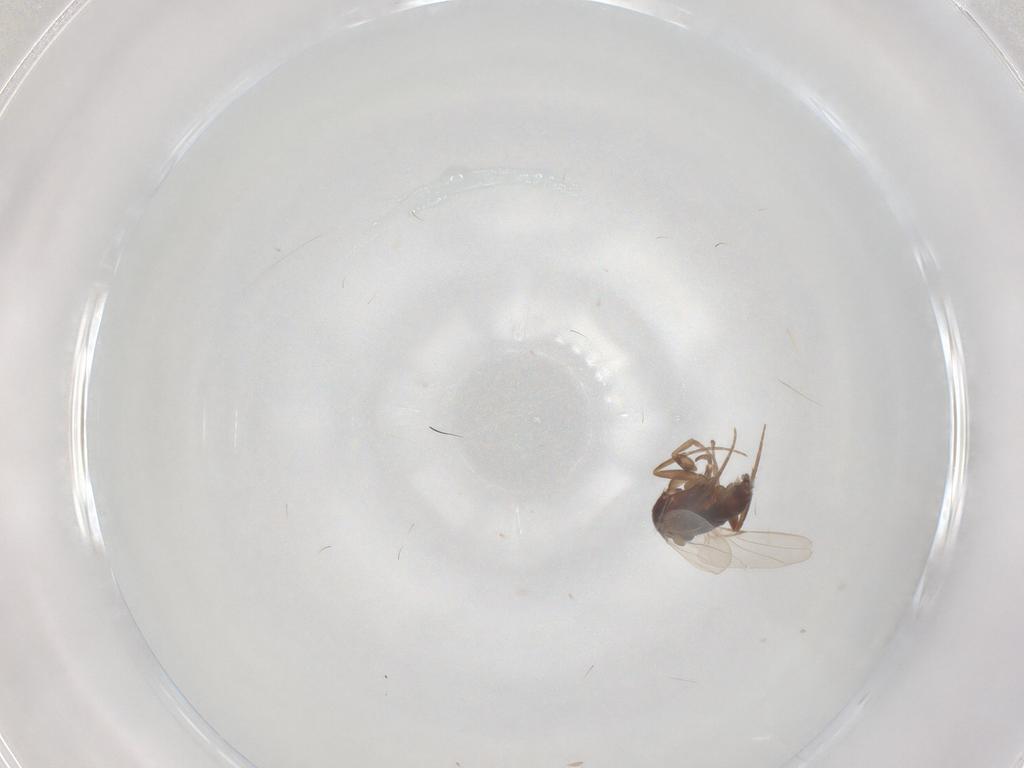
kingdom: Animalia
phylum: Arthropoda
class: Insecta
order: Diptera
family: Phoridae
